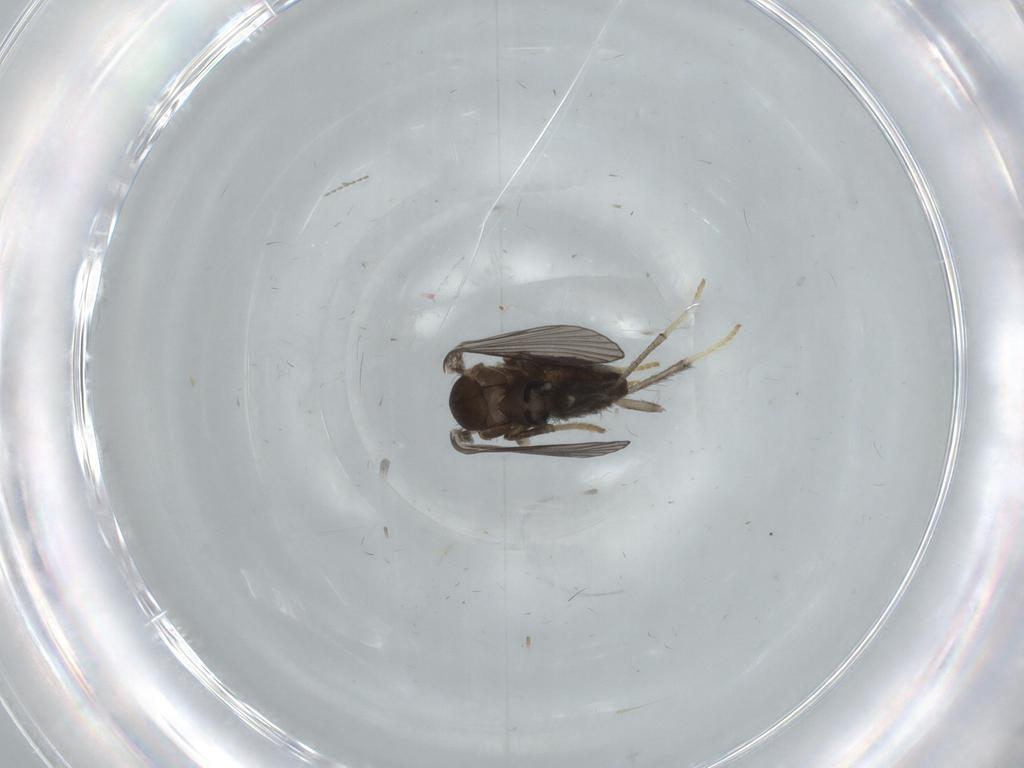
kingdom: Animalia
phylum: Arthropoda
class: Insecta
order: Diptera
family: Psychodidae
